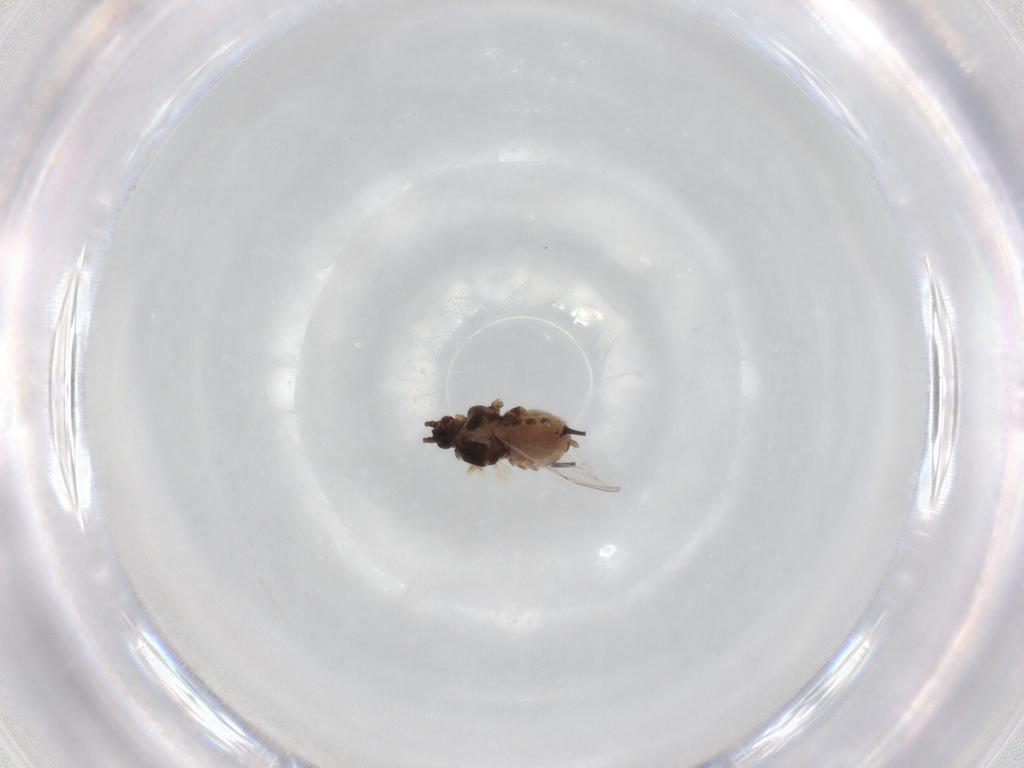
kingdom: Animalia
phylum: Arthropoda
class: Insecta
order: Hemiptera
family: Aphididae
